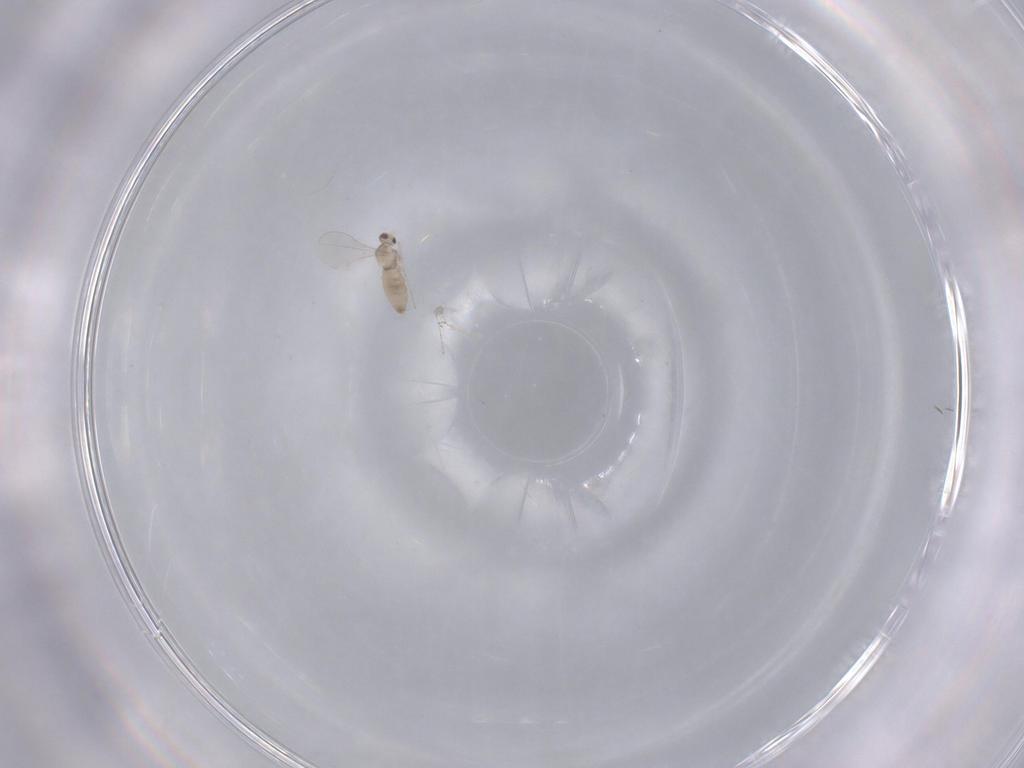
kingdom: Animalia
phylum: Arthropoda
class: Insecta
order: Diptera
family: Cecidomyiidae
